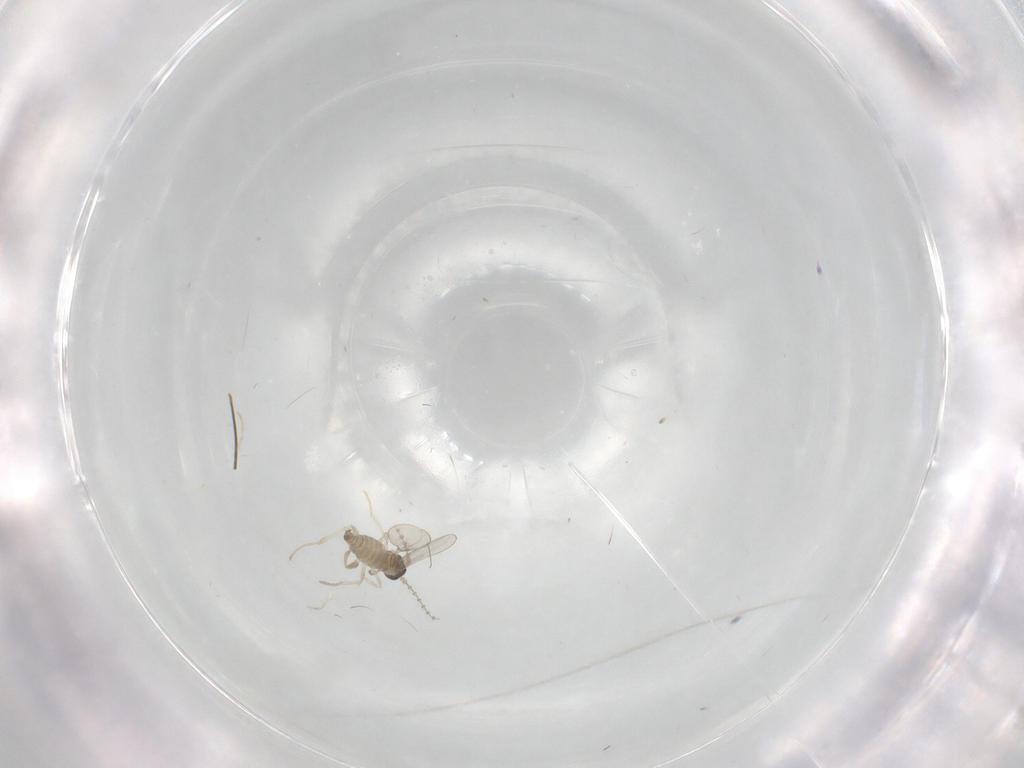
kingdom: Animalia
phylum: Arthropoda
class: Insecta
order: Diptera
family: Cecidomyiidae
